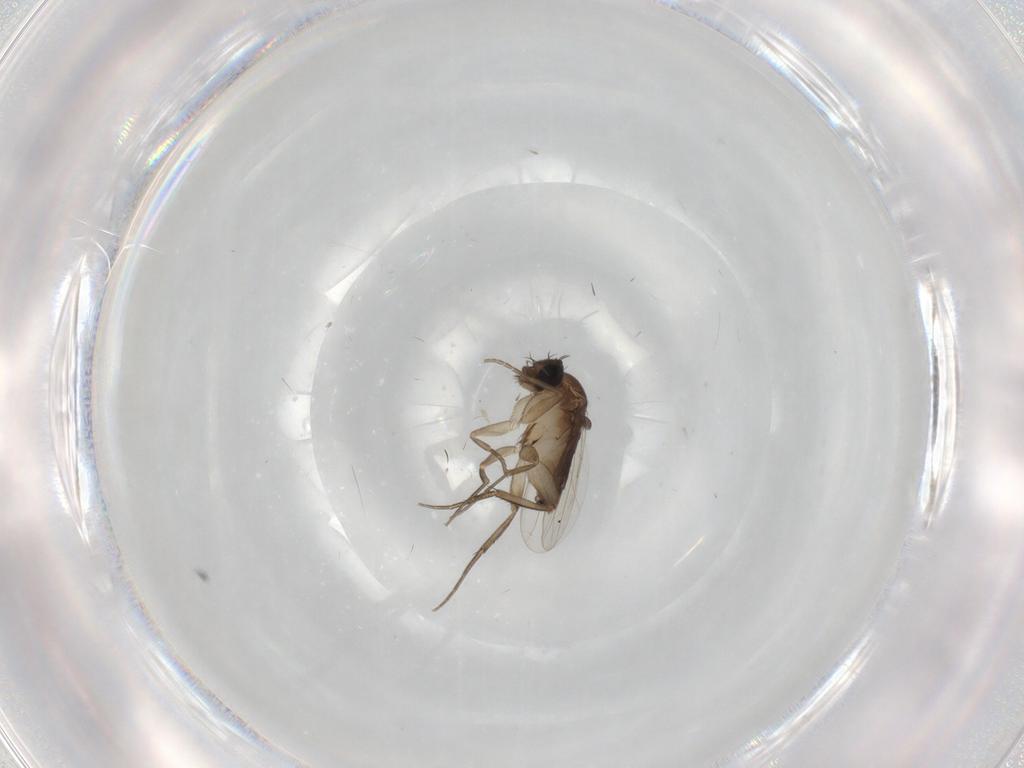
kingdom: Animalia
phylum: Arthropoda
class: Insecta
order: Diptera
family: Phoridae
